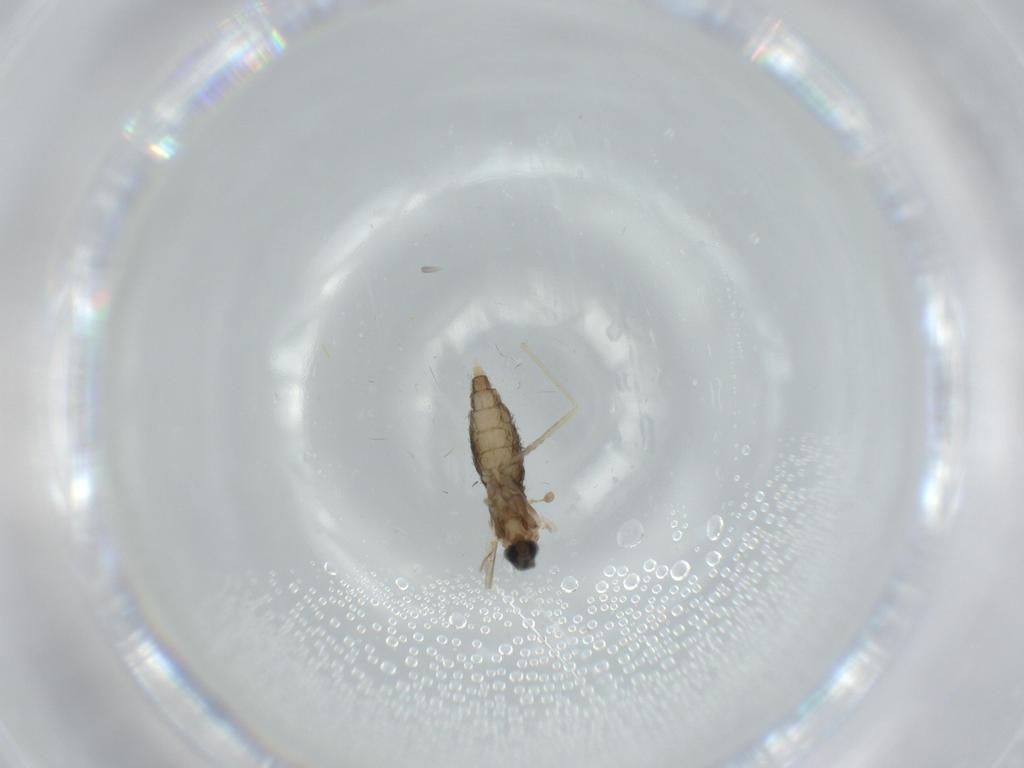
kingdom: Animalia
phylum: Arthropoda
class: Insecta
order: Diptera
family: Cecidomyiidae
